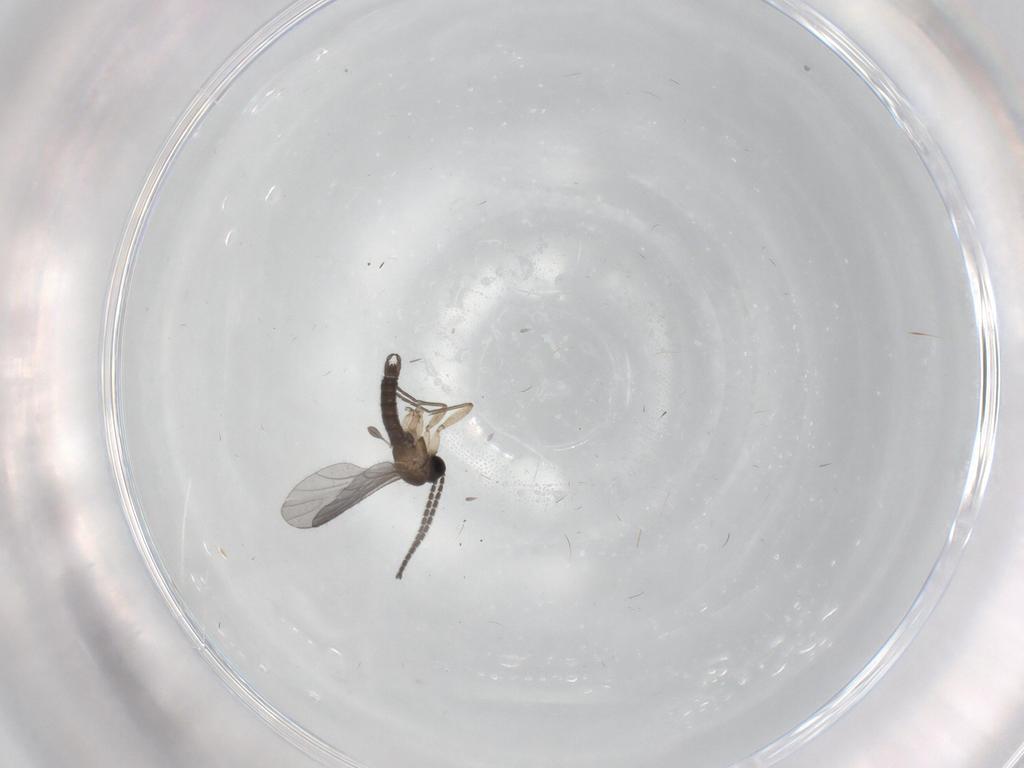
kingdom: Animalia
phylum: Arthropoda
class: Insecta
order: Diptera
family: Sciaridae
